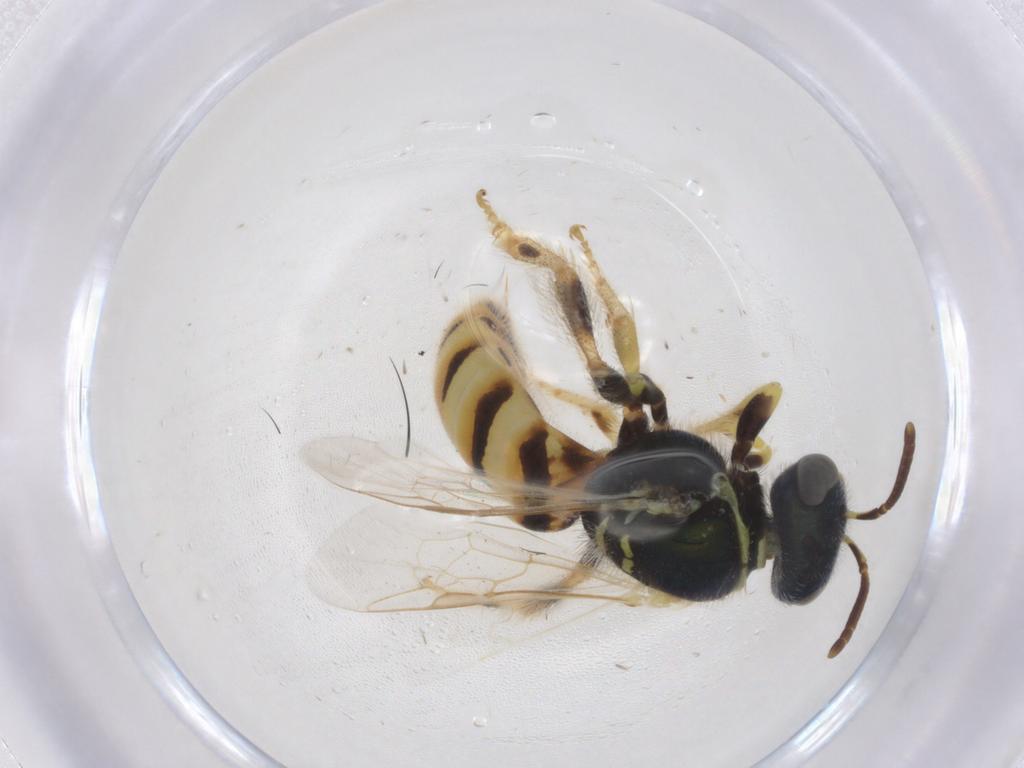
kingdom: Animalia
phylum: Arthropoda
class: Insecta
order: Hymenoptera
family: Halictidae
